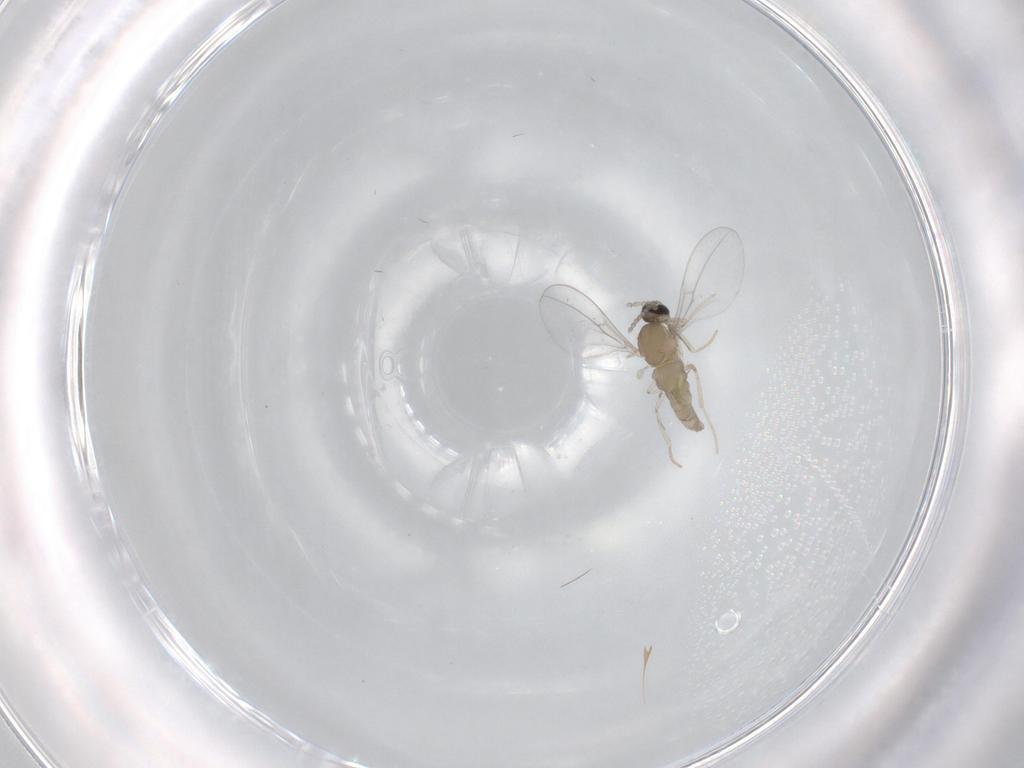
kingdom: Animalia
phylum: Arthropoda
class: Insecta
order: Diptera
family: Cecidomyiidae
